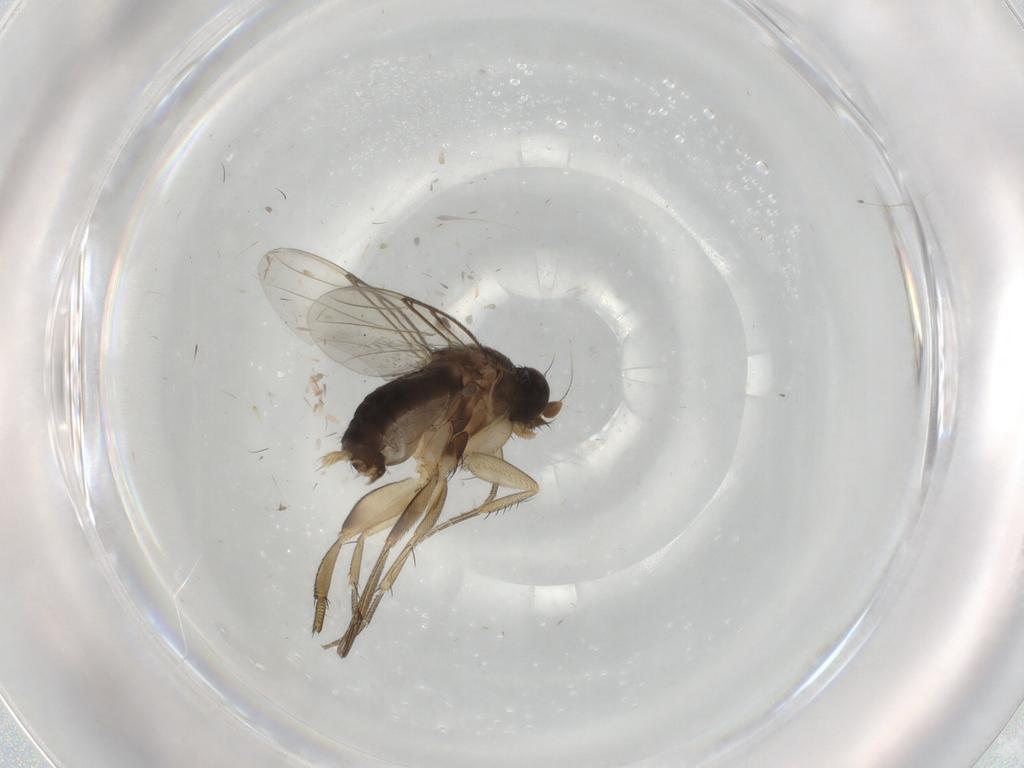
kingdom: Animalia
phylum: Arthropoda
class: Insecta
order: Diptera
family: Phoridae
